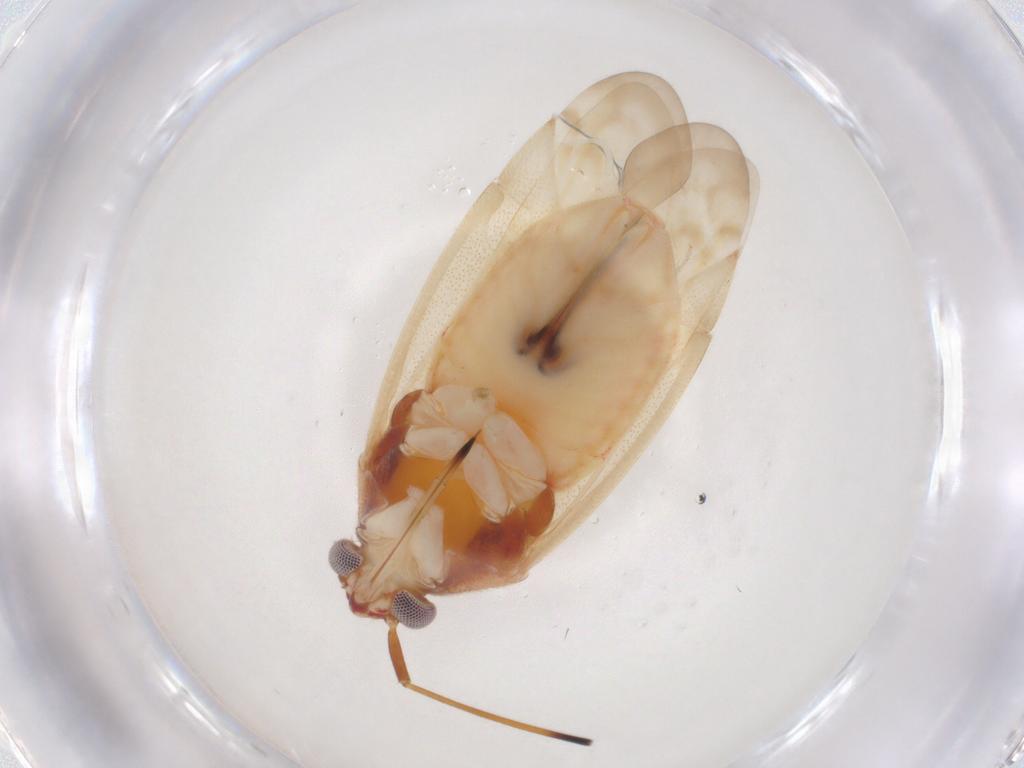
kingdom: Animalia
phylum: Arthropoda
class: Insecta
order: Hemiptera
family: Miridae
